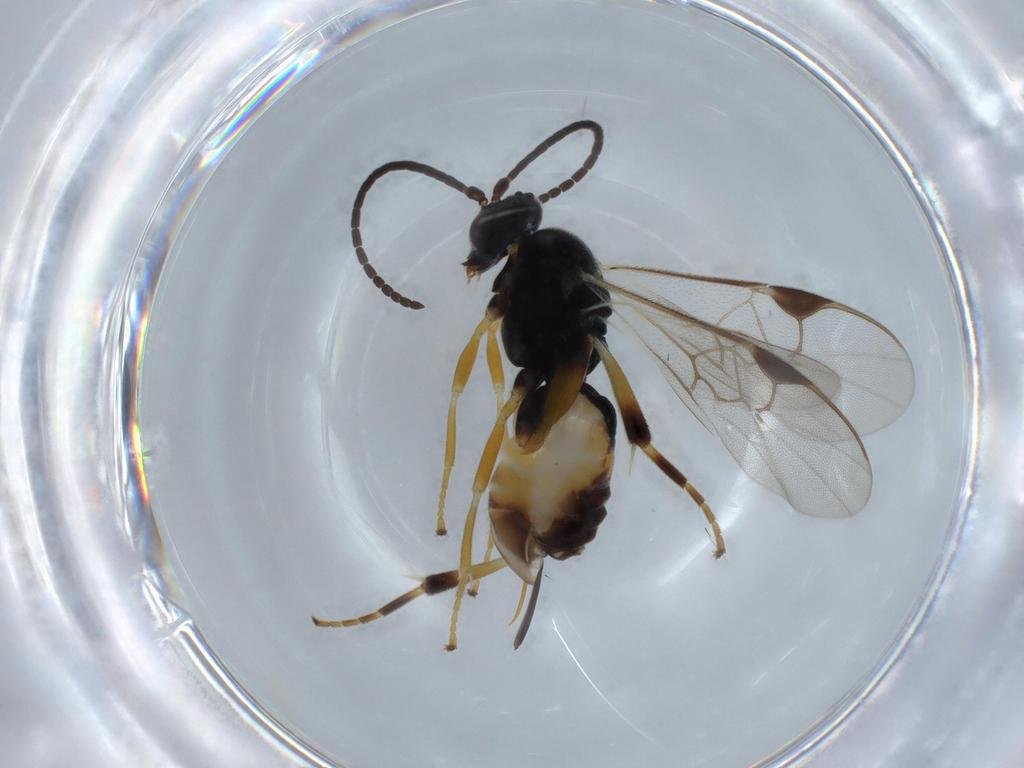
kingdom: Animalia
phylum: Arthropoda
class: Insecta
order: Hymenoptera
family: Braconidae
